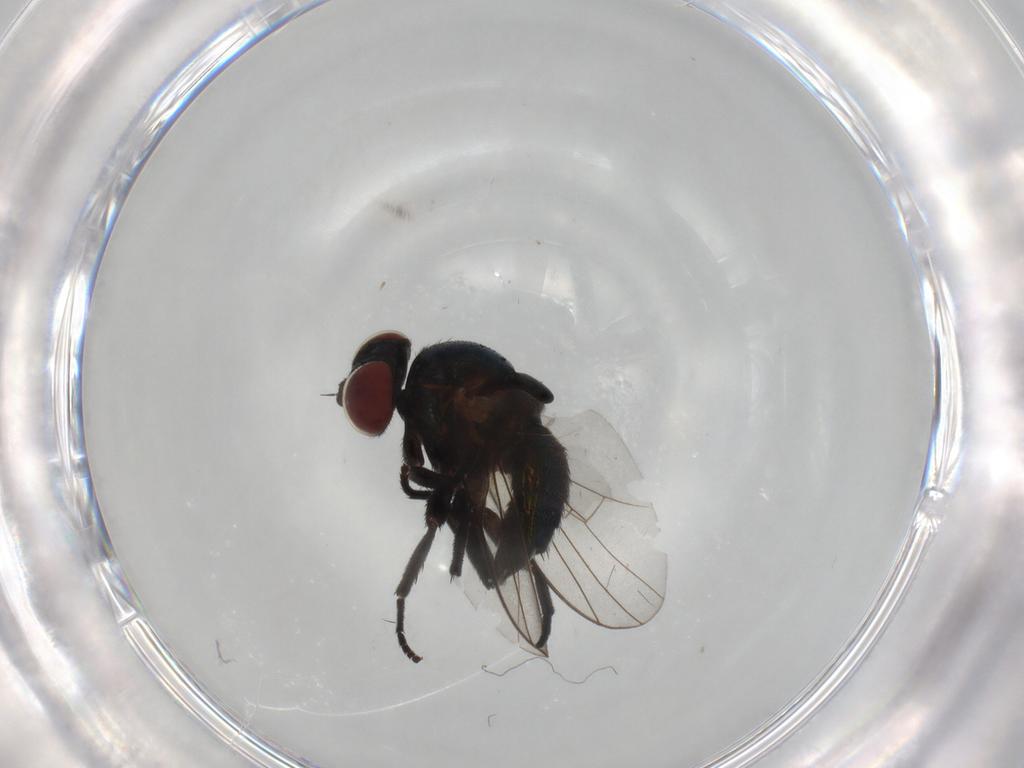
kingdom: Animalia
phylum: Arthropoda
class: Insecta
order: Diptera
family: Agromyzidae
